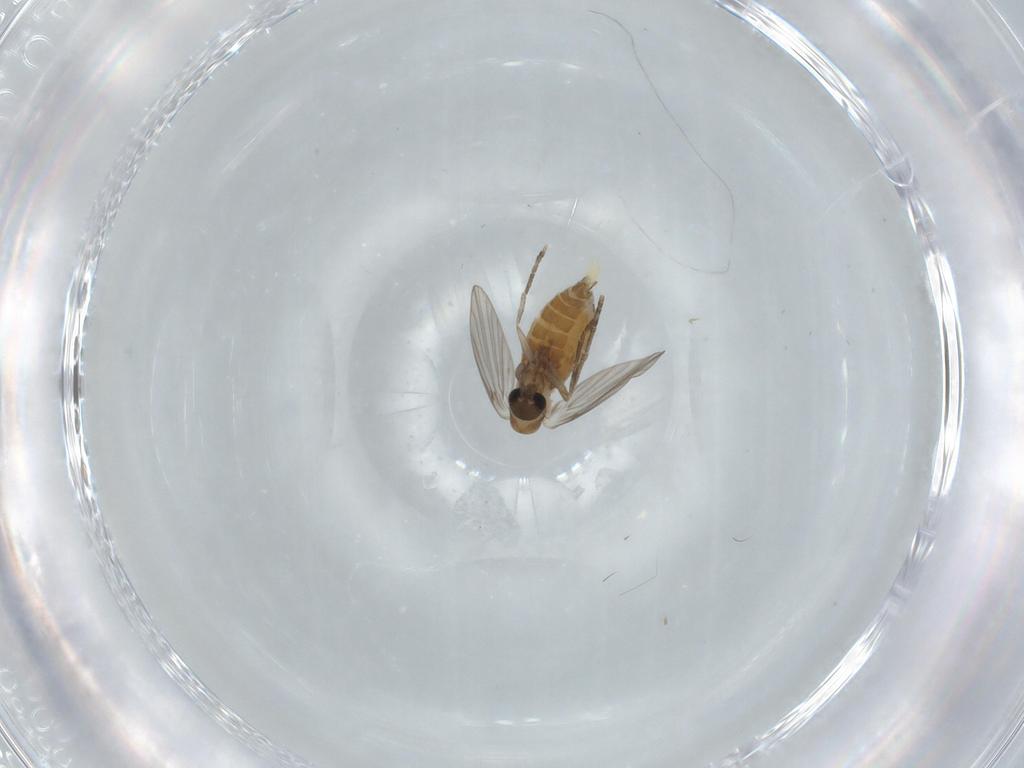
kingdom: Animalia
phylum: Arthropoda
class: Insecta
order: Diptera
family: Psychodidae
